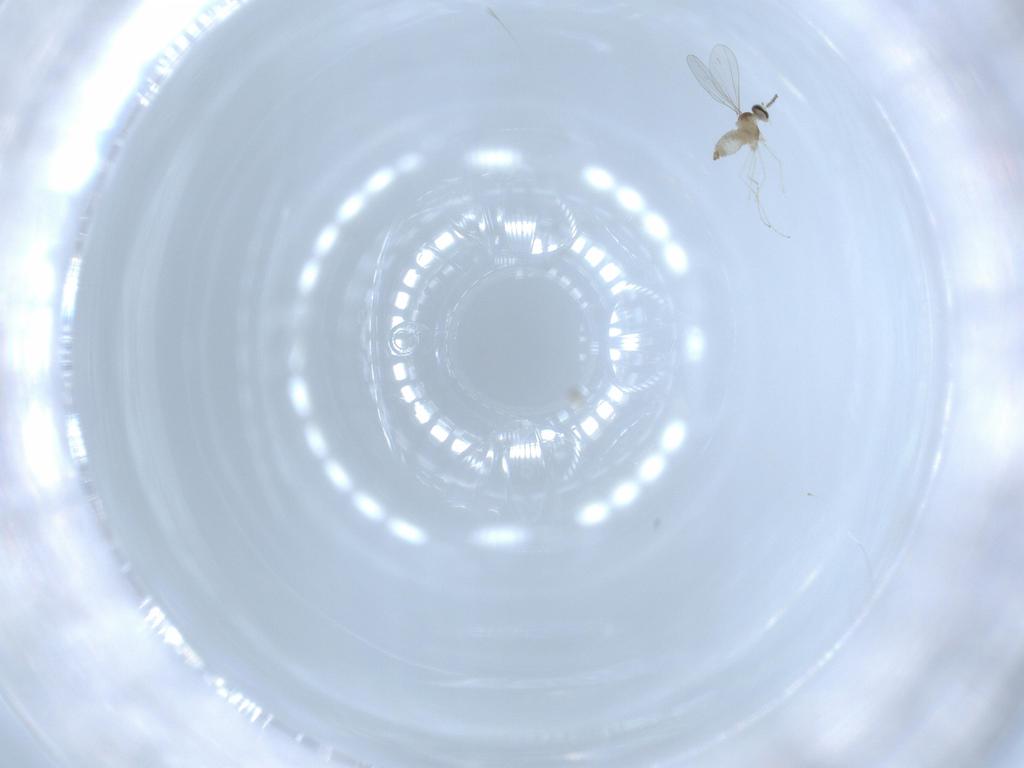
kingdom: Animalia
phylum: Arthropoda
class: Insecta
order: Diptera
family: Cecidomyiidae
